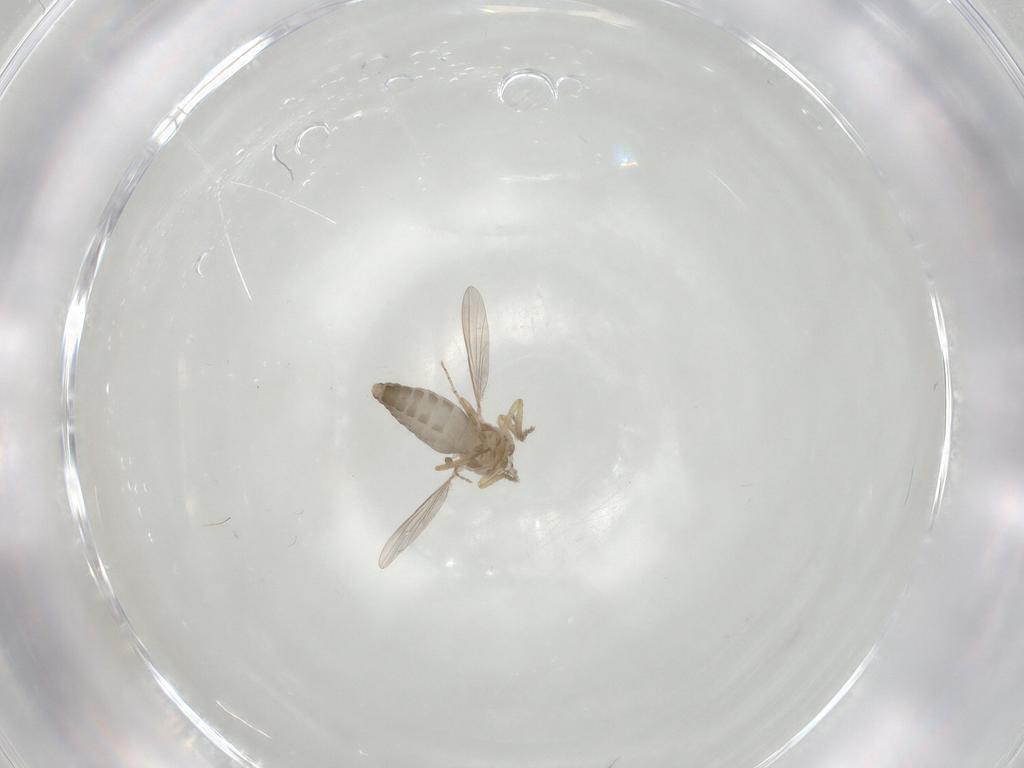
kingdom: Animalia
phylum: Arthropoda
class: Insecta
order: Diptera
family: Ceratopogonidae
